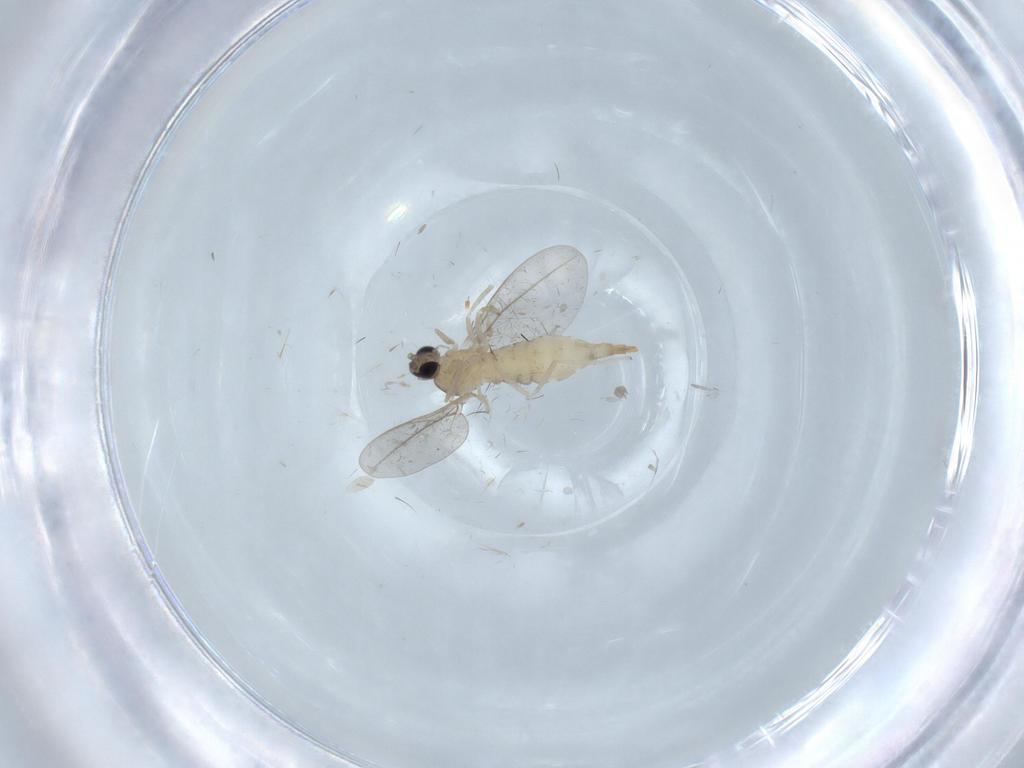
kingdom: Animalia
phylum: Arthropoda
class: Insecta
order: Diptera
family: Cecidomyiidae
